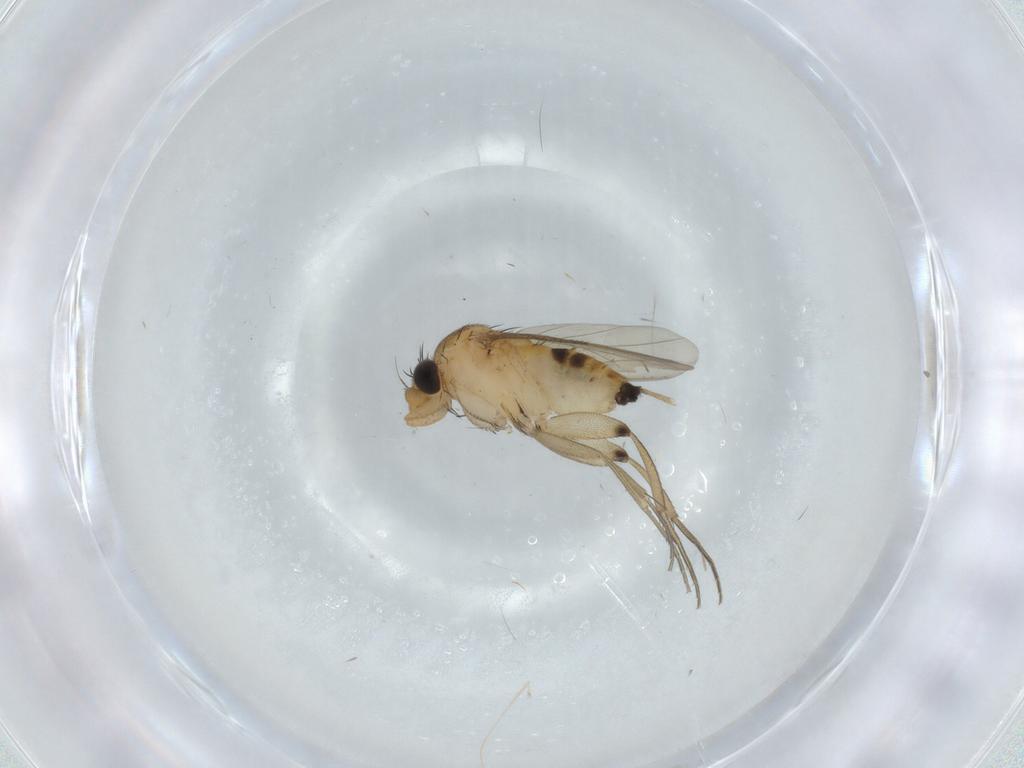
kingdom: Animalia
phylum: Arthropoda
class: Insecta
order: Diptera
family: Phoridae
